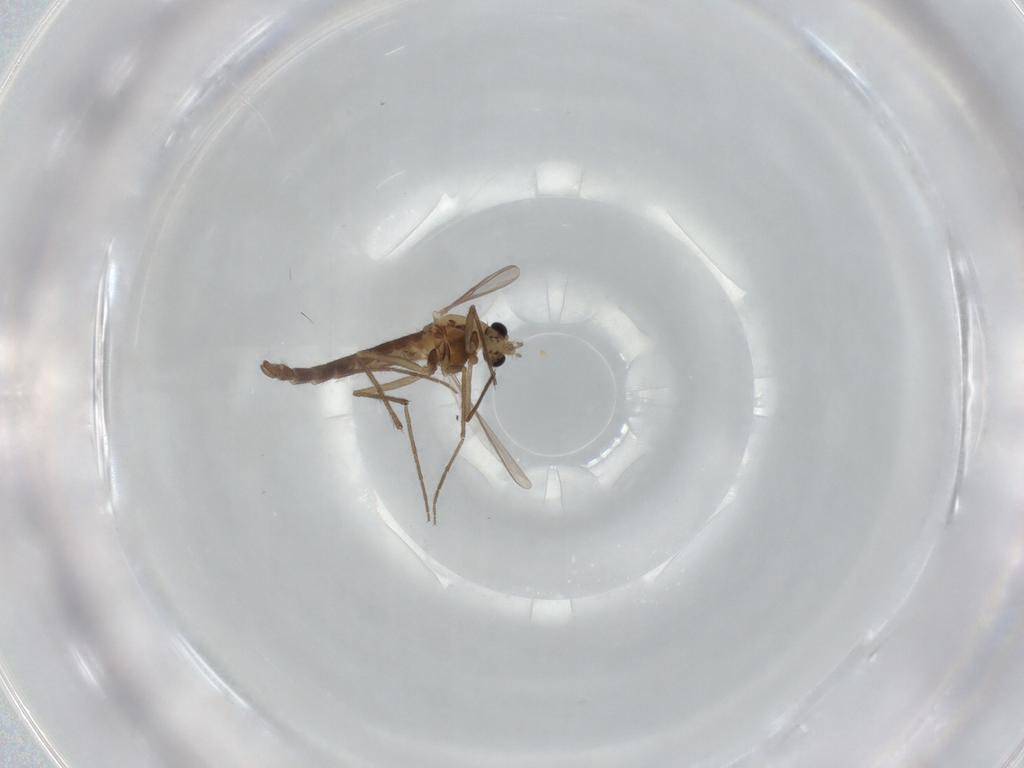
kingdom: Animalia
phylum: Arthropoda
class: Insecta
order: Diptera
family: Chironomidae
